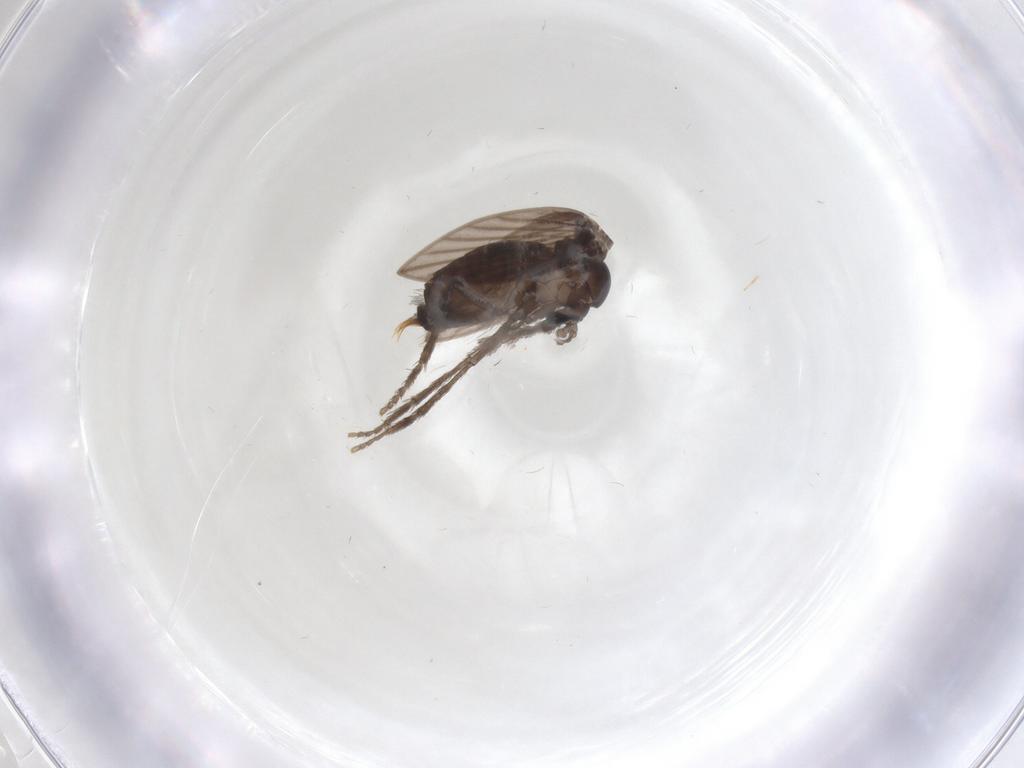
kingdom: Animalia
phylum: Arthropoda
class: Insecta
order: Diptera
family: Psychodidae
